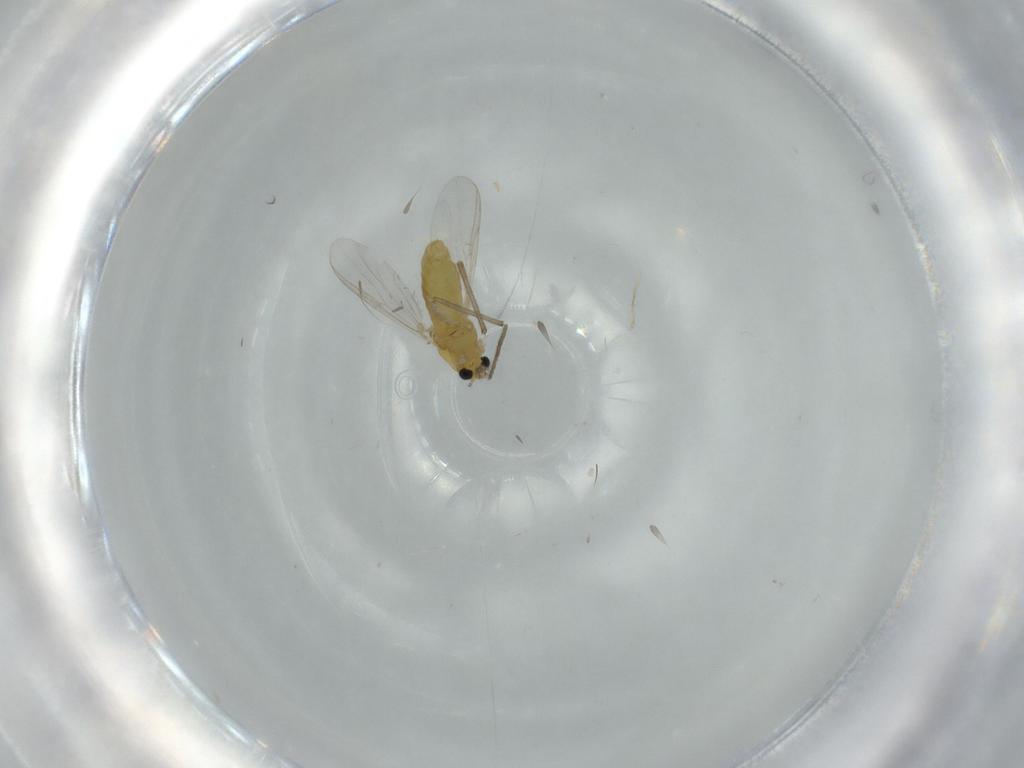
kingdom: Animalia
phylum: Arthropoda
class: Insecta
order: Diptera
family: Chironomidae
